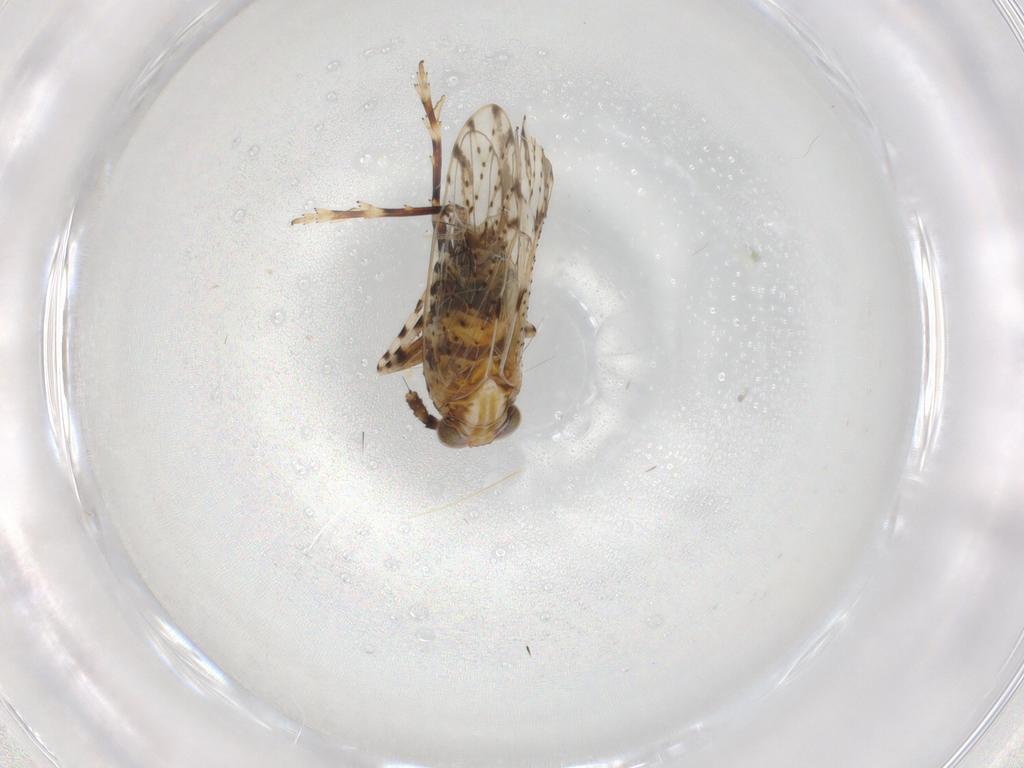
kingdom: Animalia
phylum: Arthropoda
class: Insecta
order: Hemiptera
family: Delphacidae
